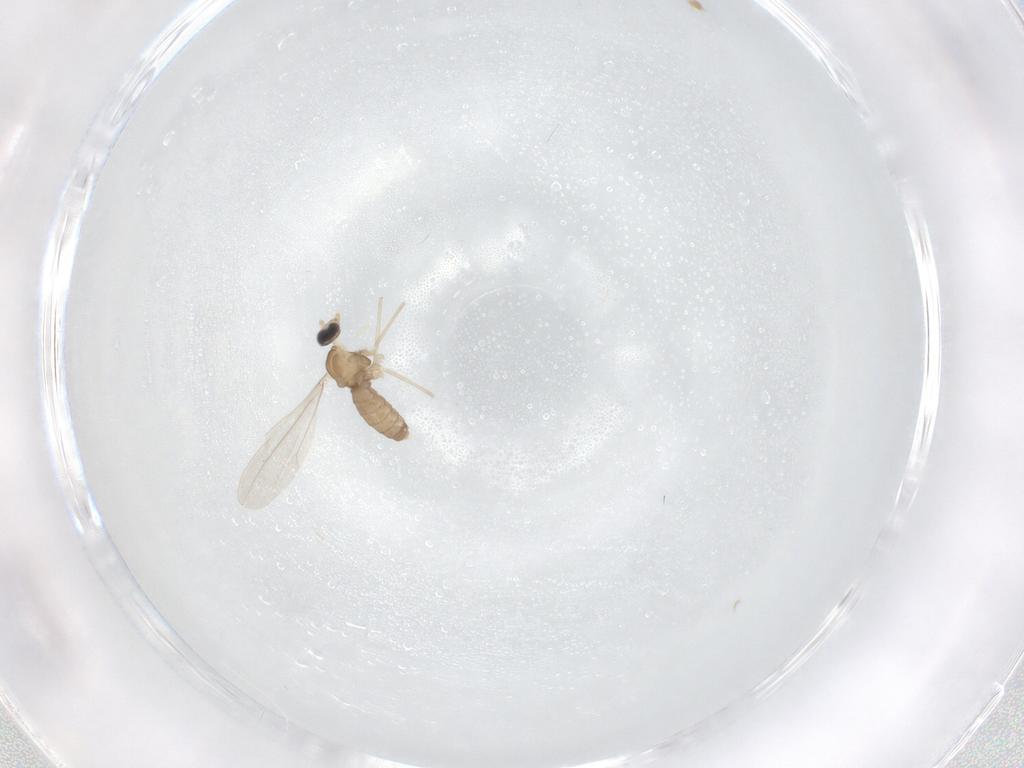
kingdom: Animalia
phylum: Arthropoda
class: Insecta
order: Diptera
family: Cecidomyiidae
